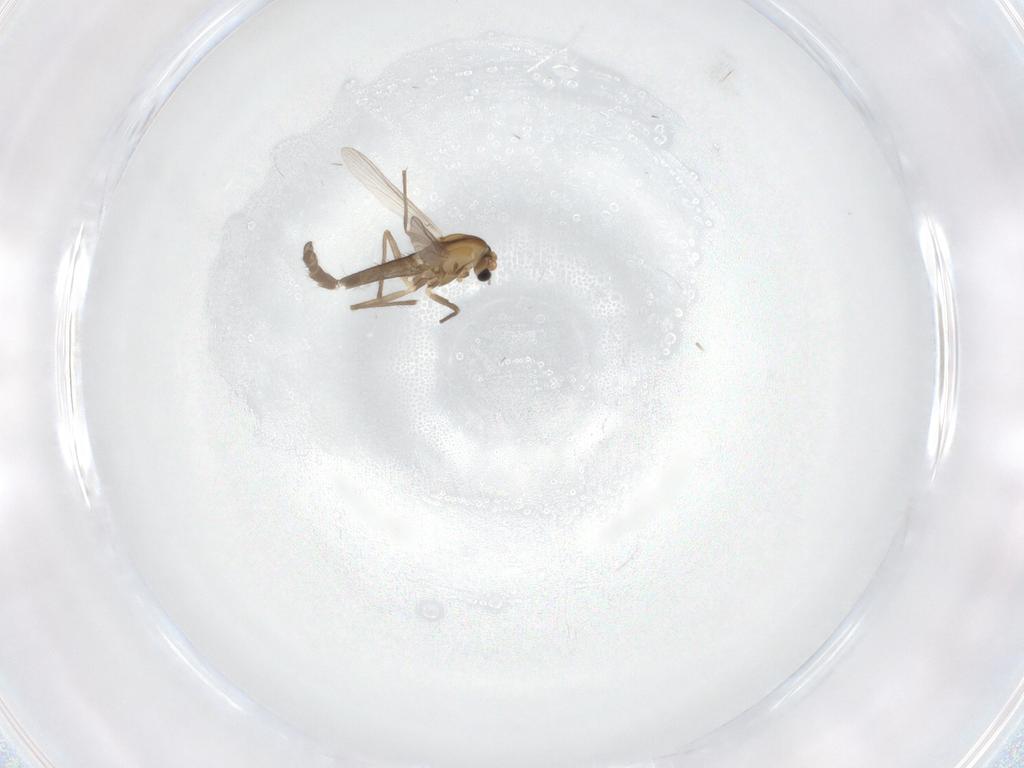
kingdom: Animalia
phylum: Arthropoda
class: Insecta
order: Diptera
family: Chironomidae
